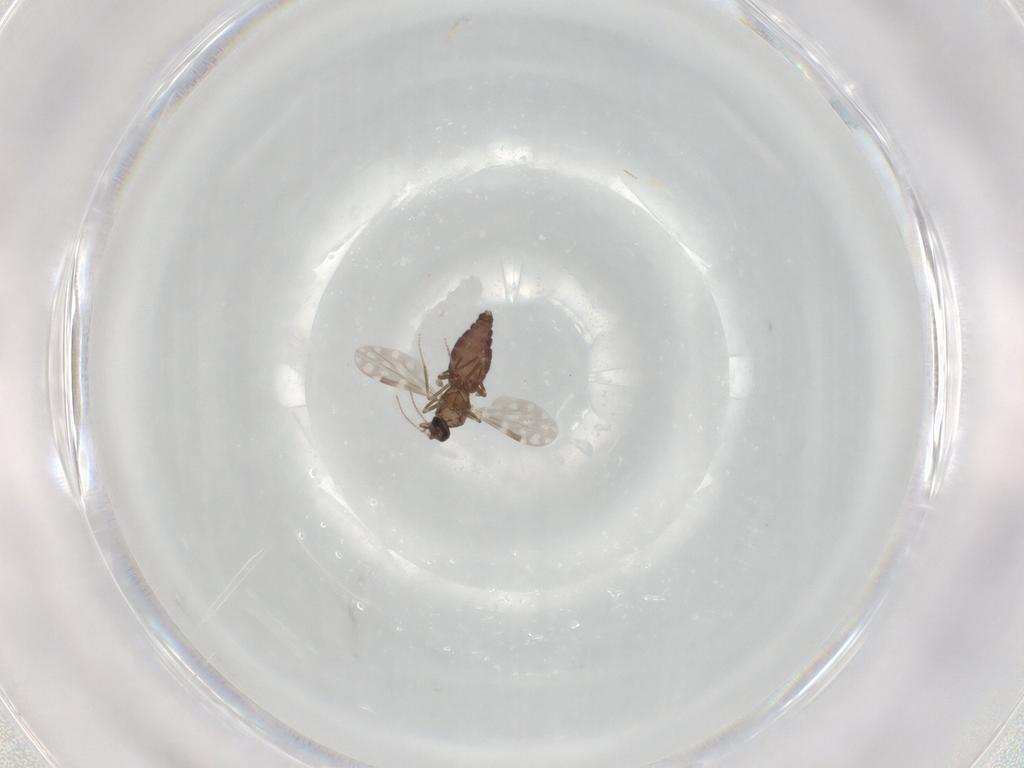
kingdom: Animalia
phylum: Arthropoda
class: Insecta
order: Diptera
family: Ceratopogonidae
